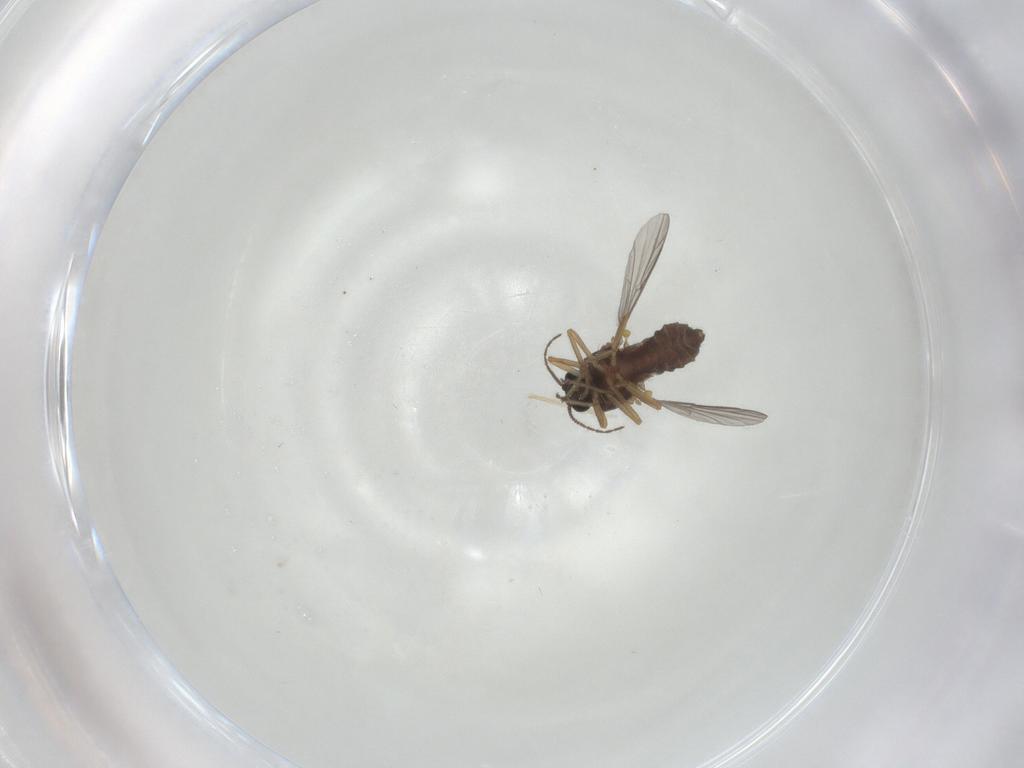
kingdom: Animalia
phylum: Arthropoda
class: Insecta
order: Diptera
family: Ceratopogonidae
